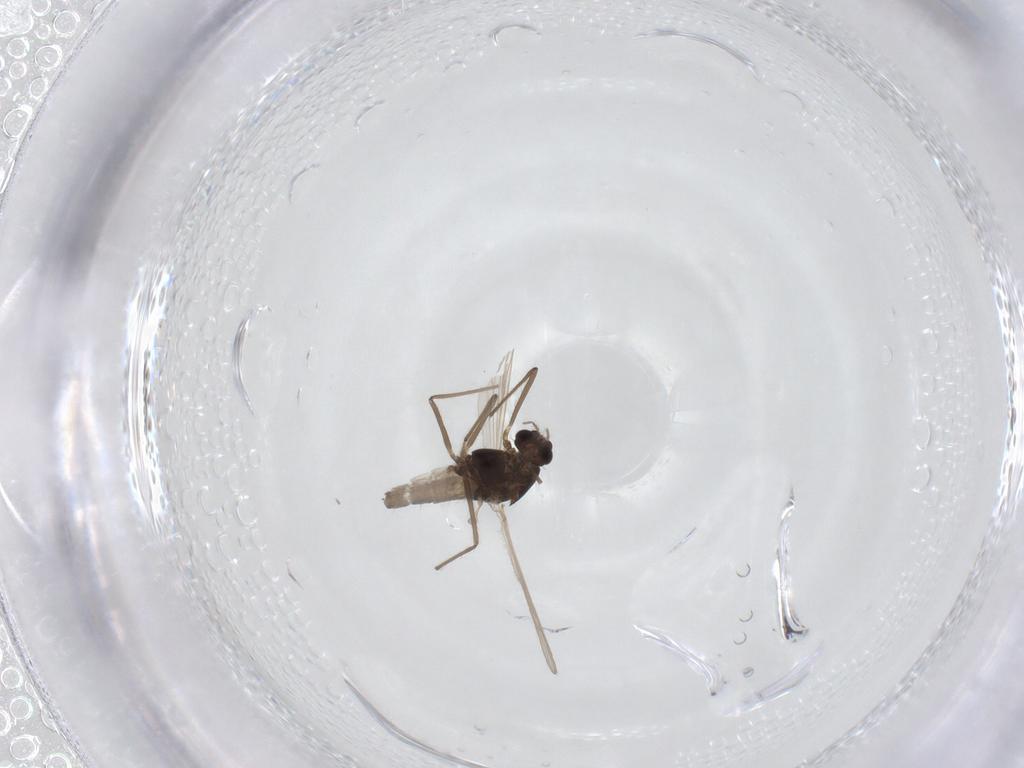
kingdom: Animalia
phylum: Arthropoda
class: Insecta
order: Diptera
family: Chironomidae
